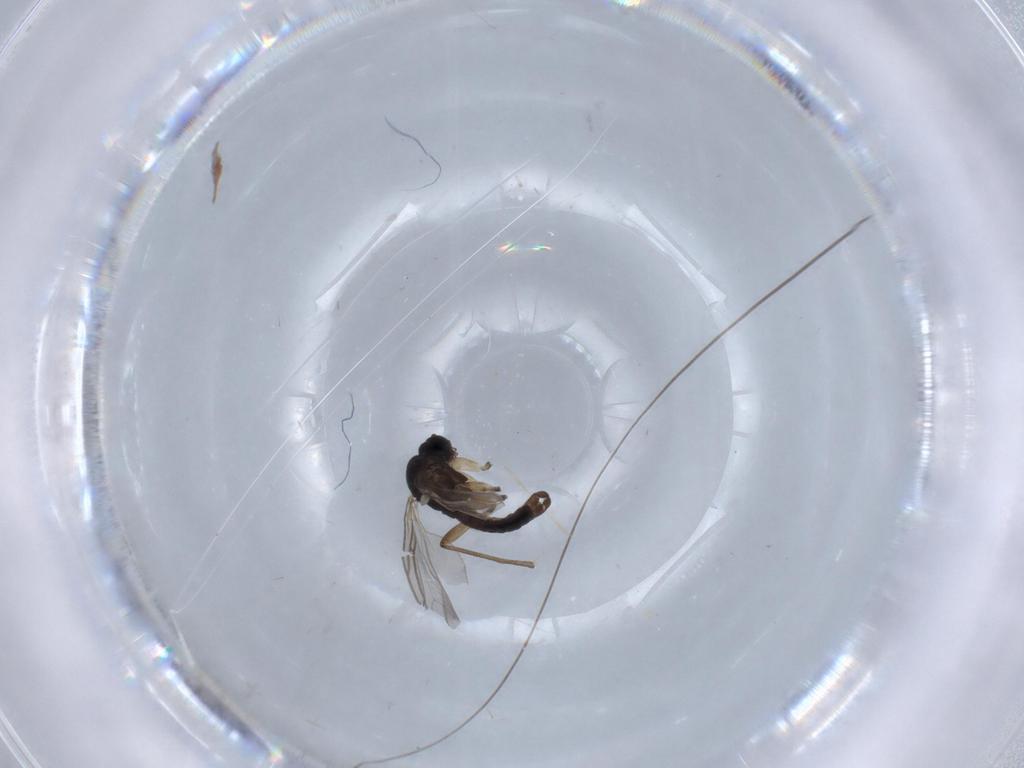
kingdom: Animalia
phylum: Arthropoda
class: Insecta
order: Diptera
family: Sciaridae
